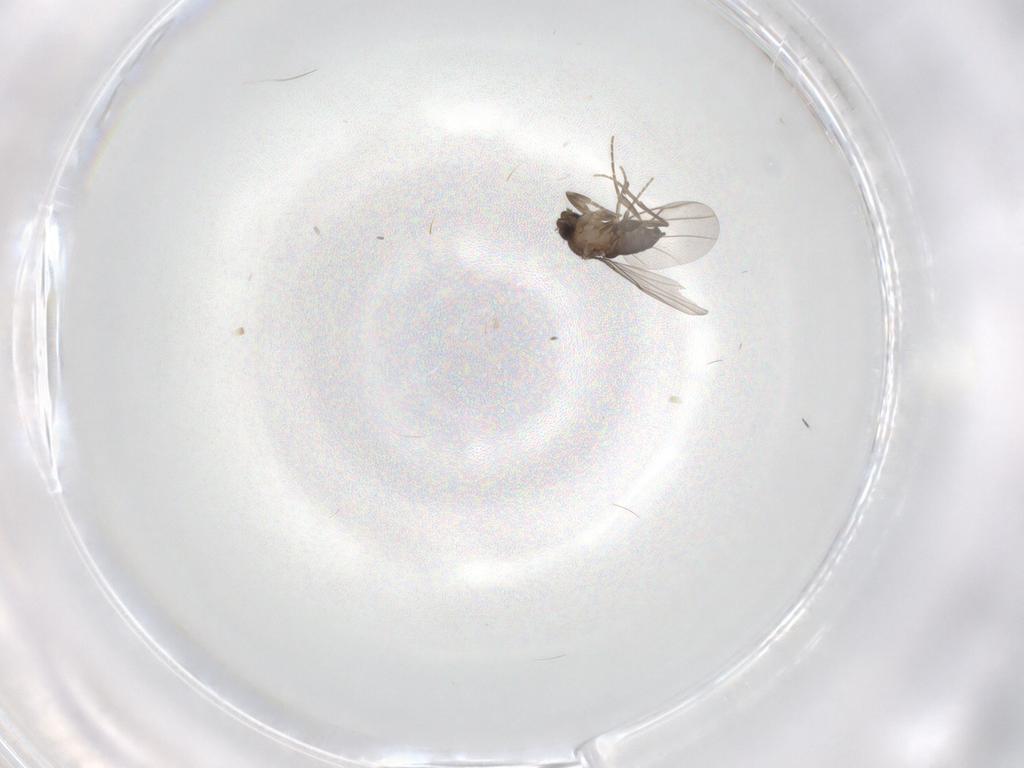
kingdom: Animalia
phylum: Arthropoda
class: Insecta
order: Diptera
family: Phoridae
